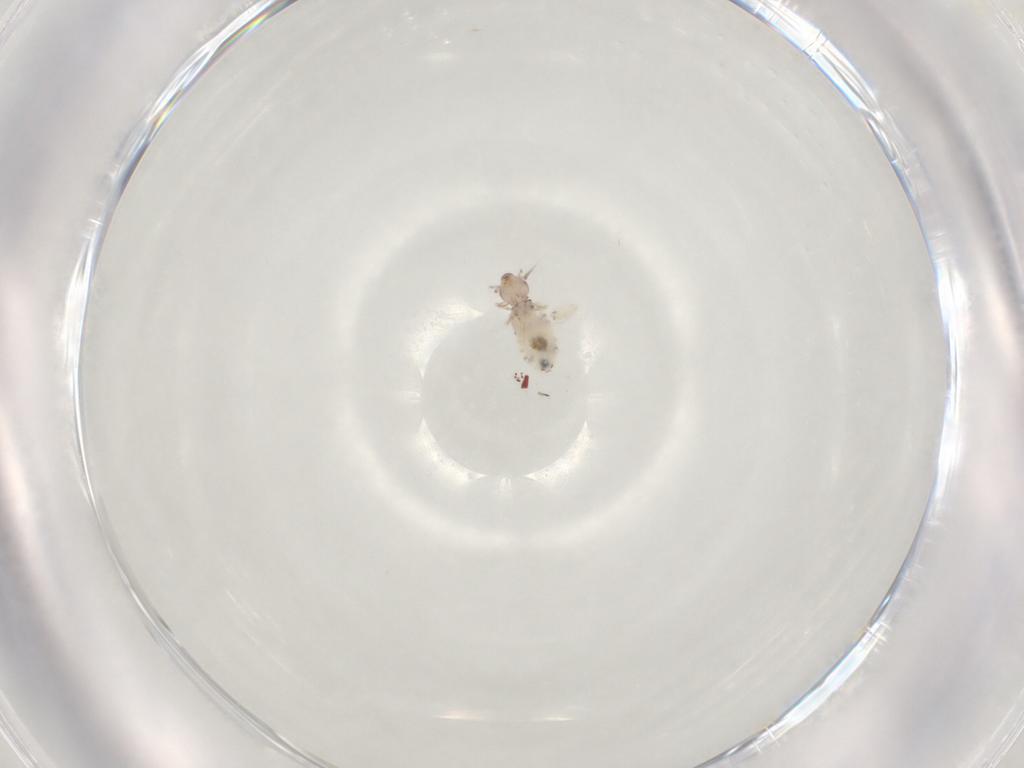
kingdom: Animalia
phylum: Arthropoda
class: Insecta
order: Psocodea
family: Liposcelididae
